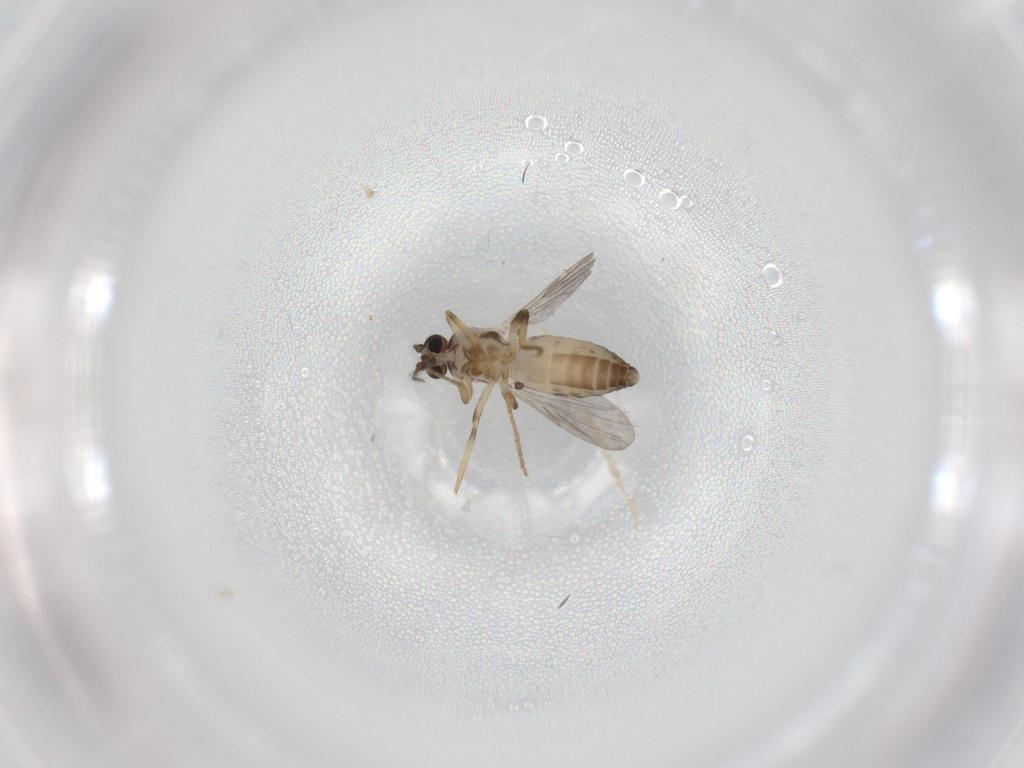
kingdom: Animalia
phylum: Arthropoda
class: Insecta
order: Diptera
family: Ceratopogonidae
